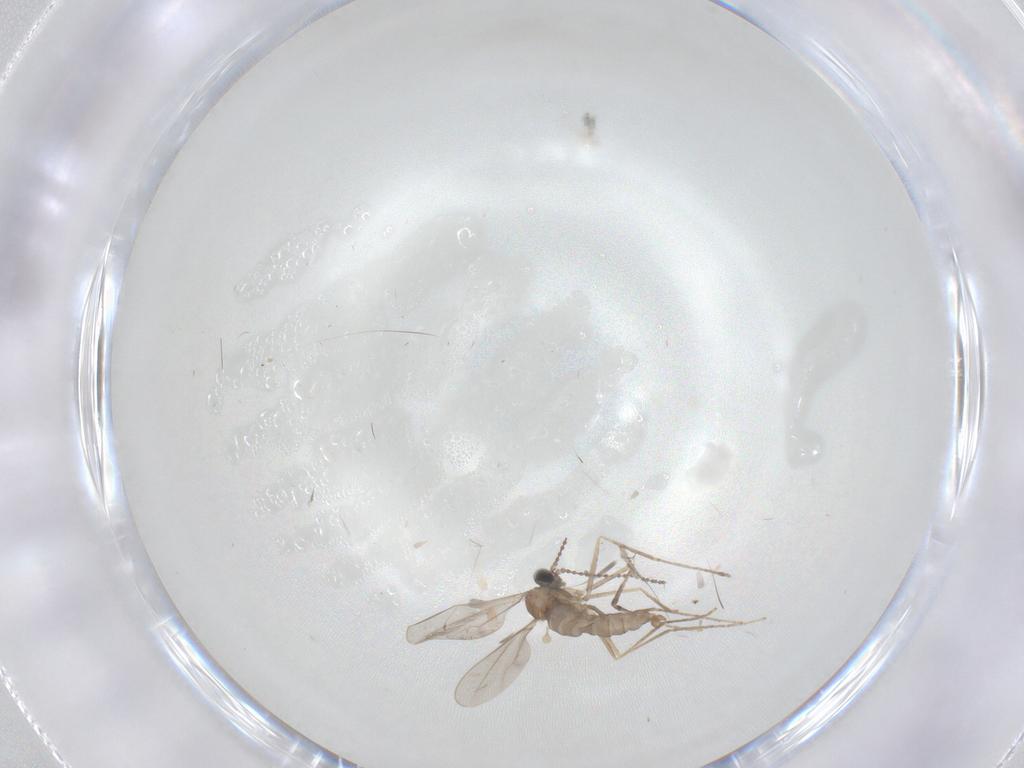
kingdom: Animalia
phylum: Arthropoda
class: Insecta
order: Diptera
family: Cecidomyiidae
